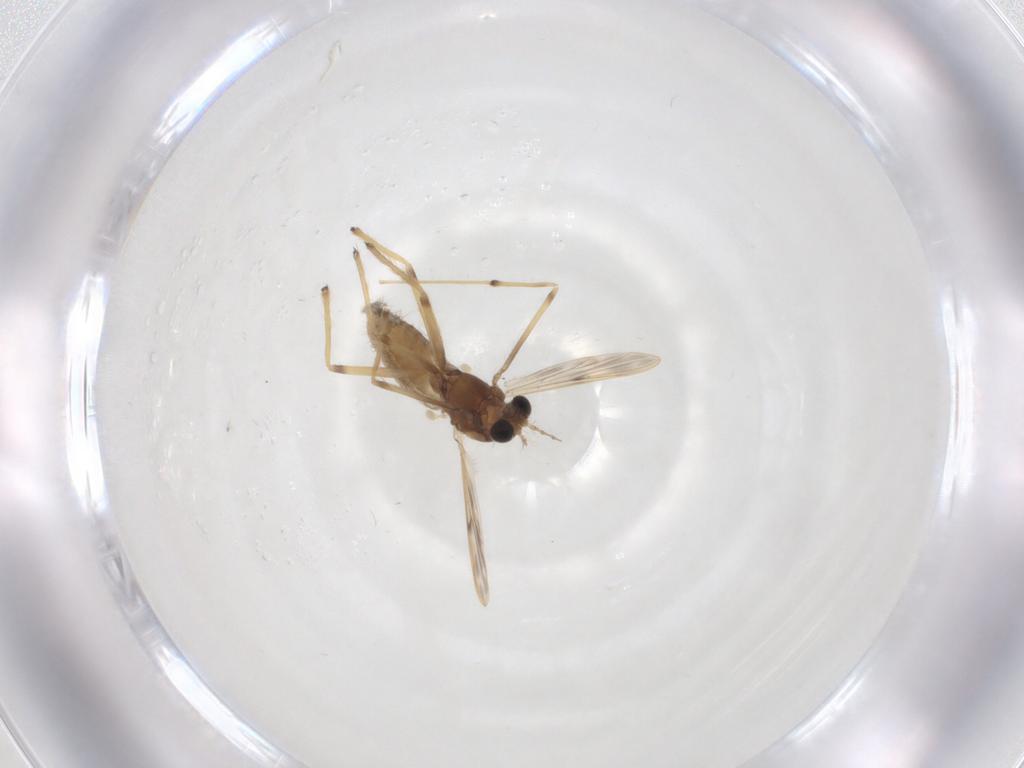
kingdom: Animalia
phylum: Arthropoda
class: Insecta
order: Diptera
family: Chironomidae
